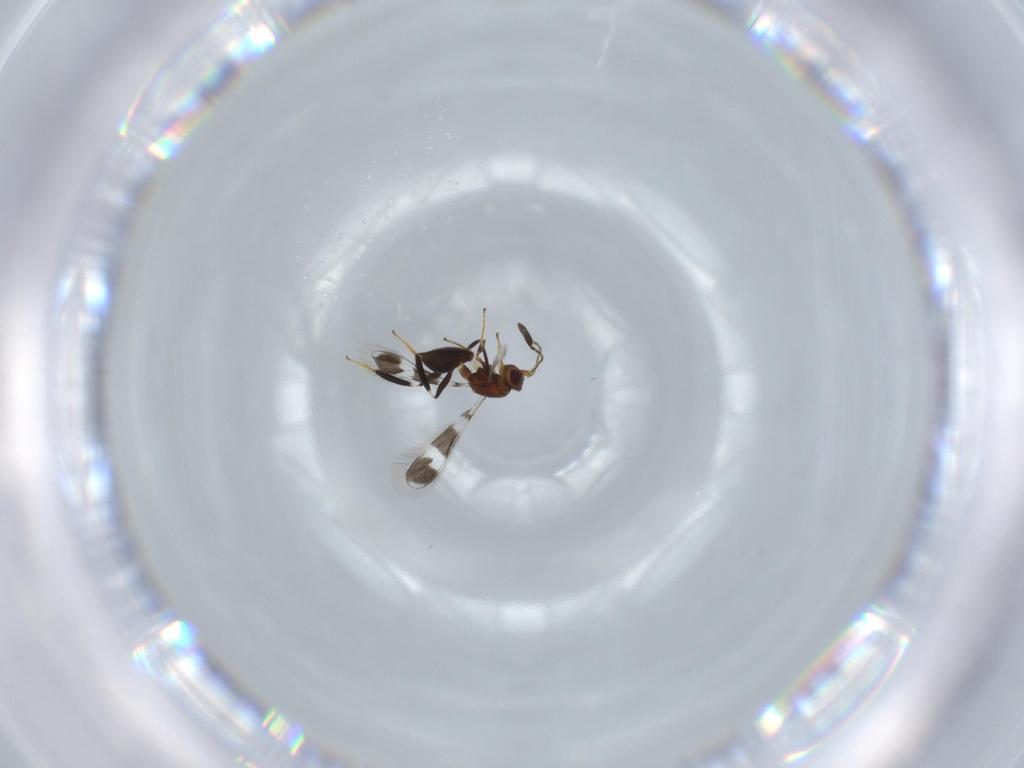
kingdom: Animalia
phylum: Arthropoda
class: Insecta
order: Hymenoptera
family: Mymaridae
